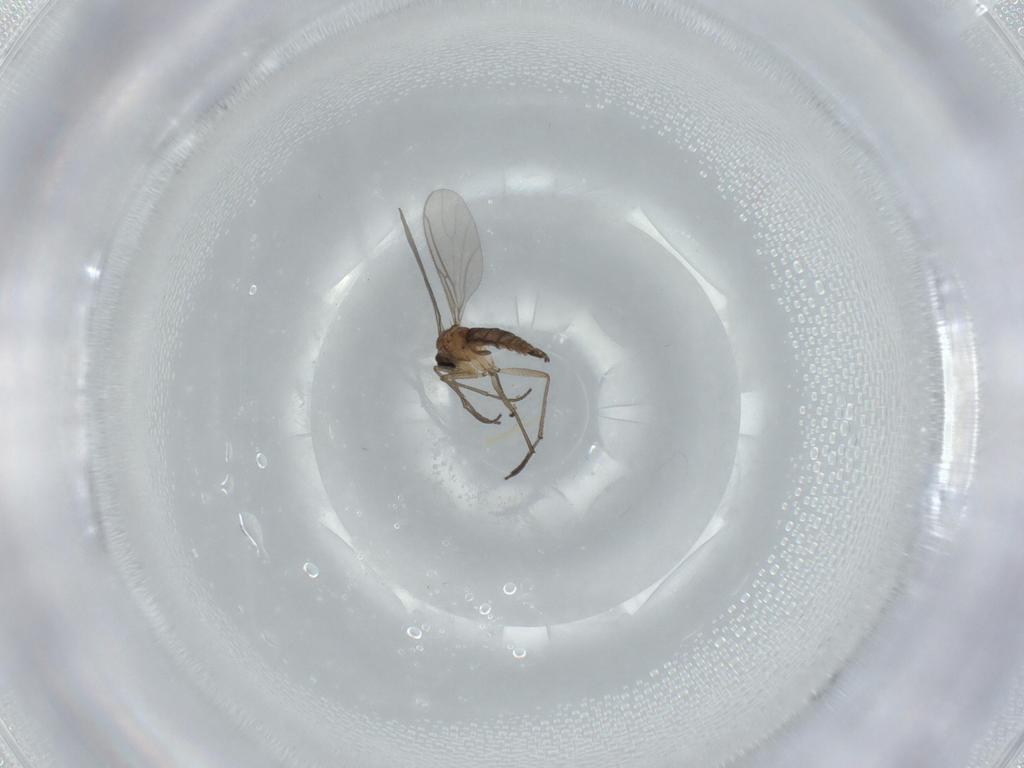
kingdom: Animalia
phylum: Arthropoda
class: Insecta
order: Diptera
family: Sciaridae
